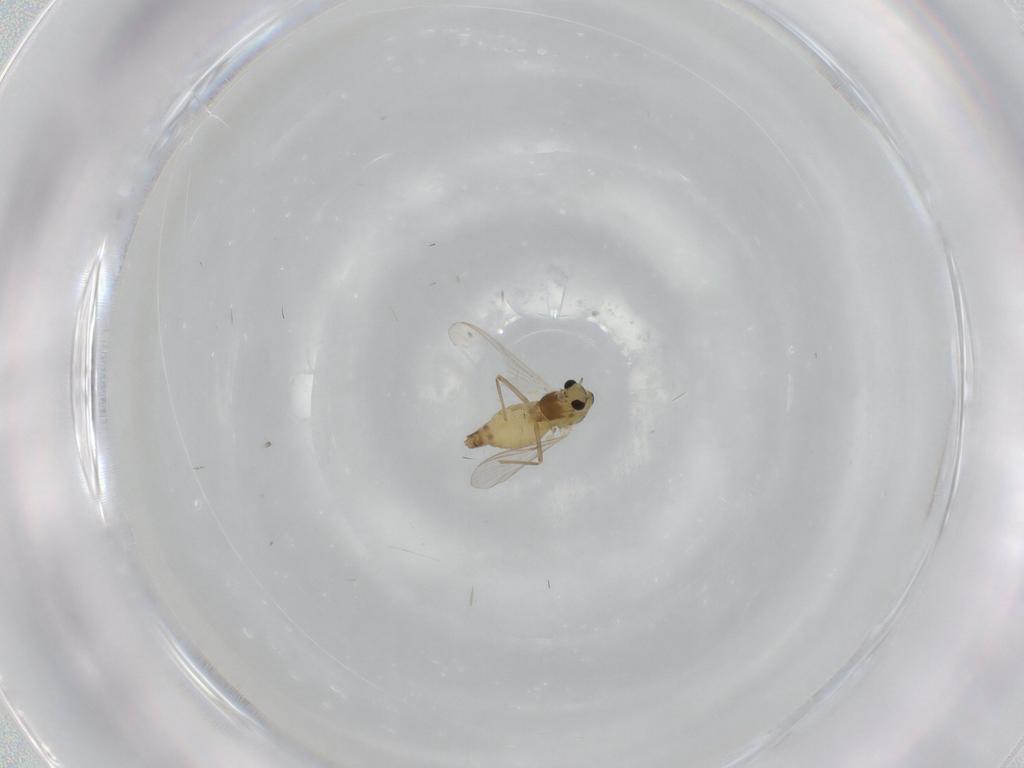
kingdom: Animalia
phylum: Arthropoda
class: Insecta
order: Diptera
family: Chironomidae
